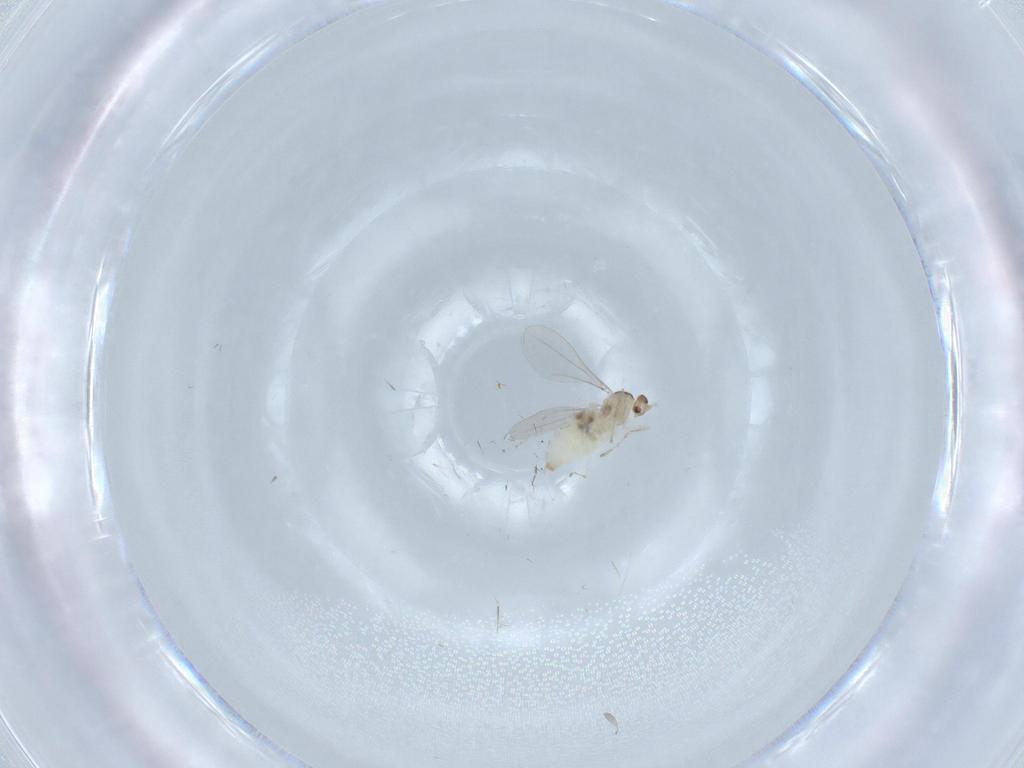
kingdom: Animalia
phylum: Arthropoda
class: Insecta
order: Diptera
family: Cecidomyiidae
